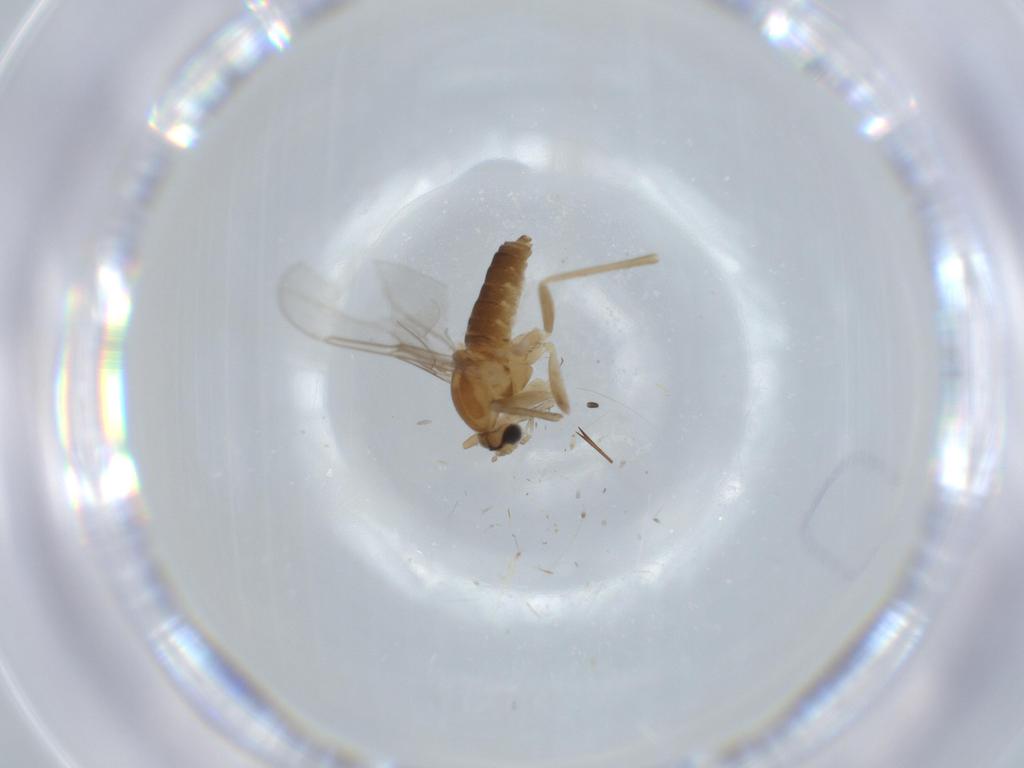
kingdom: Animalia
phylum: Arthropoda
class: Insecta
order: Diptera
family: Cecidomyiidae
